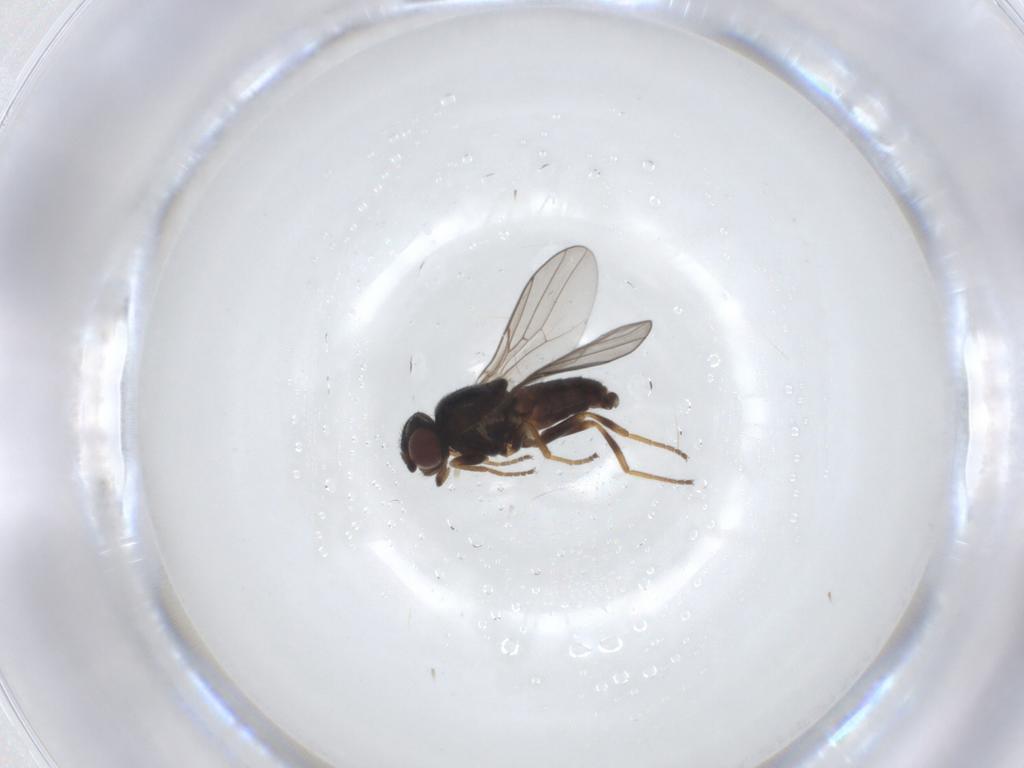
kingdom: Animalia
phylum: Arthropoda
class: Insecta
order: Diptera
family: Chloropidae
